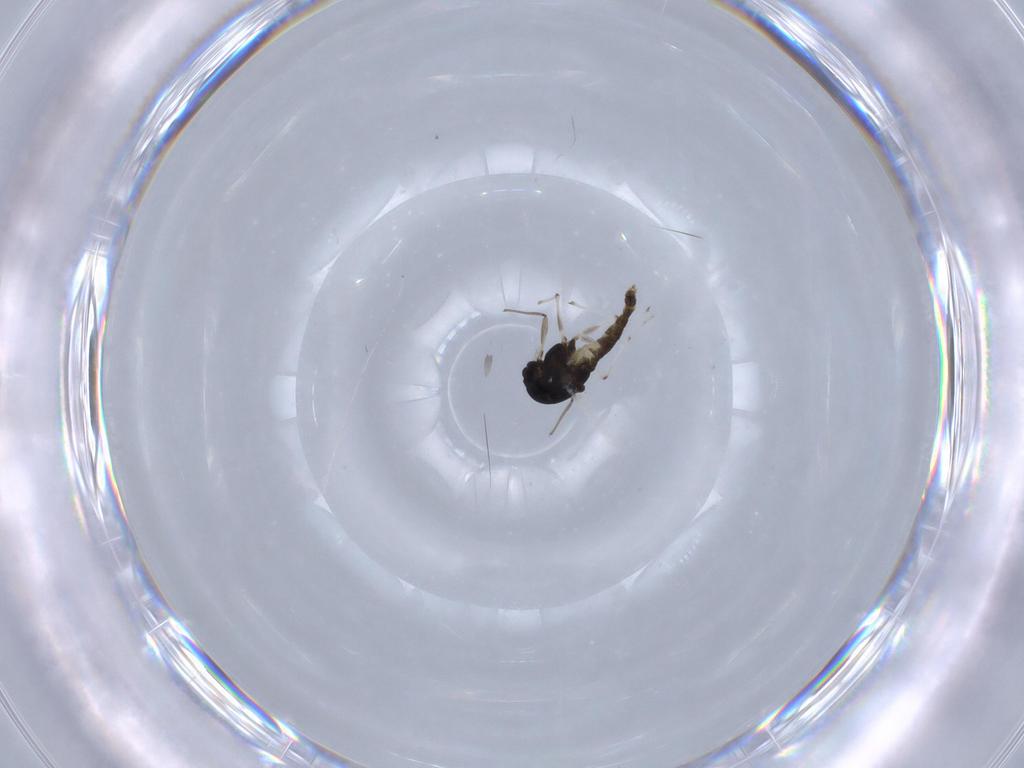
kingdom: Animalia
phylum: Arthropoda
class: Insecta
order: Diptera
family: Chironomidae
